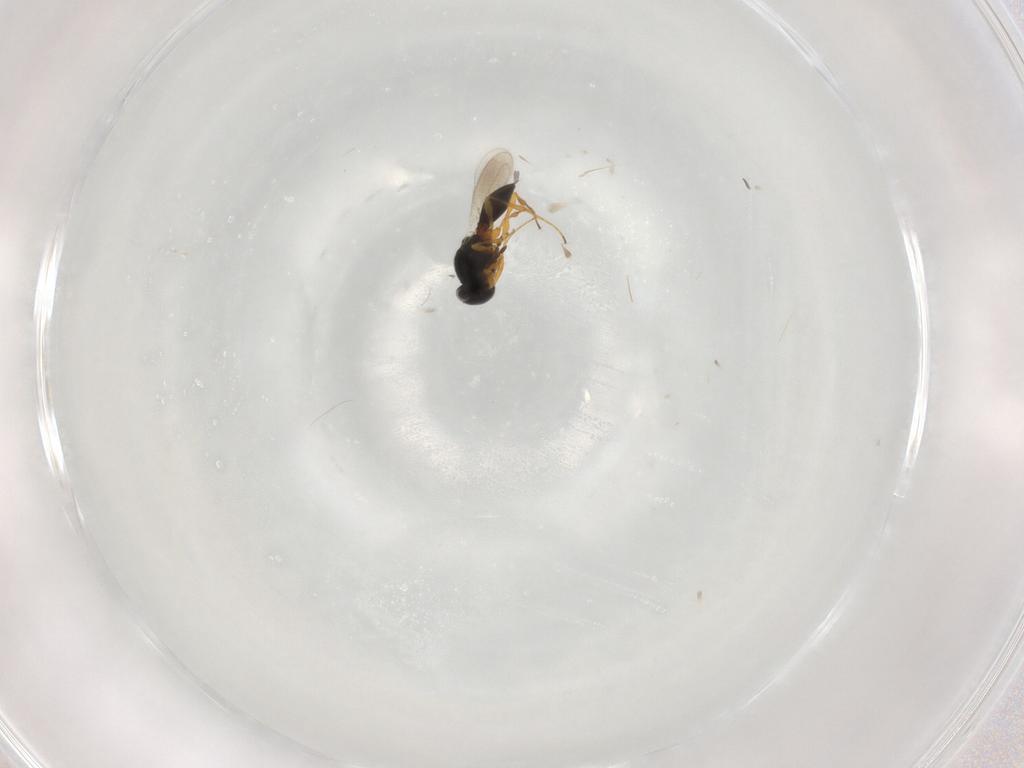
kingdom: Animalia
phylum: Arthropoda
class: Insecta
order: Hymenoptera
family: Platygastridae
